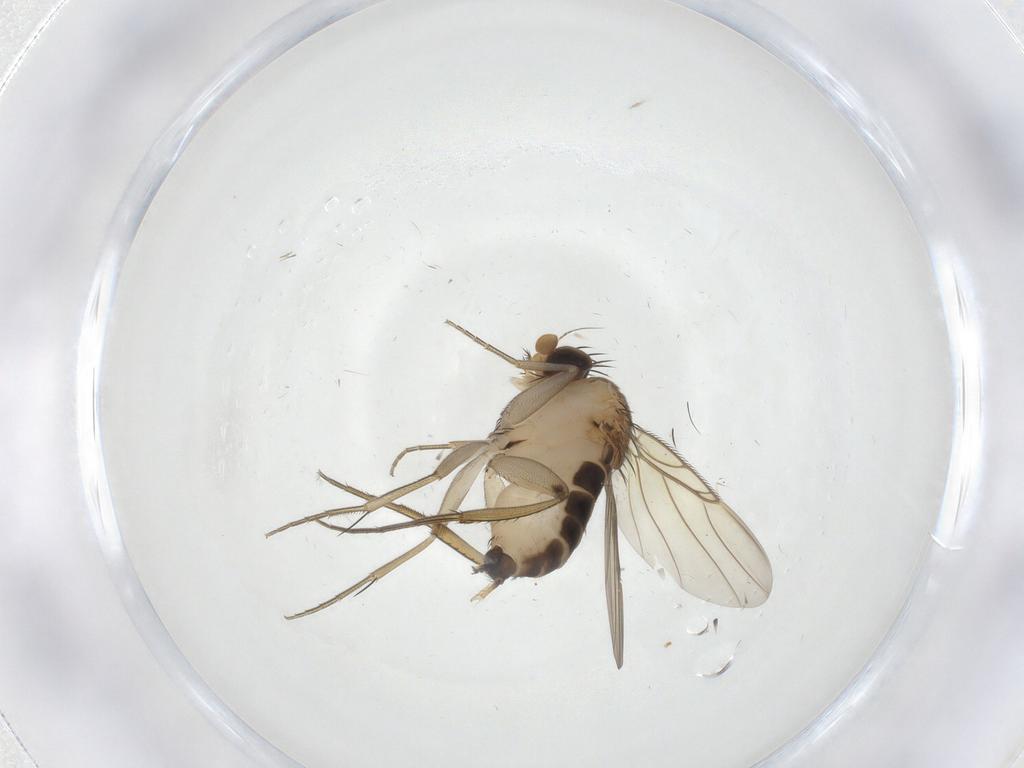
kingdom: Animalia
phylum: Arthropoda
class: Insecta
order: Diptera
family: Phoridae
